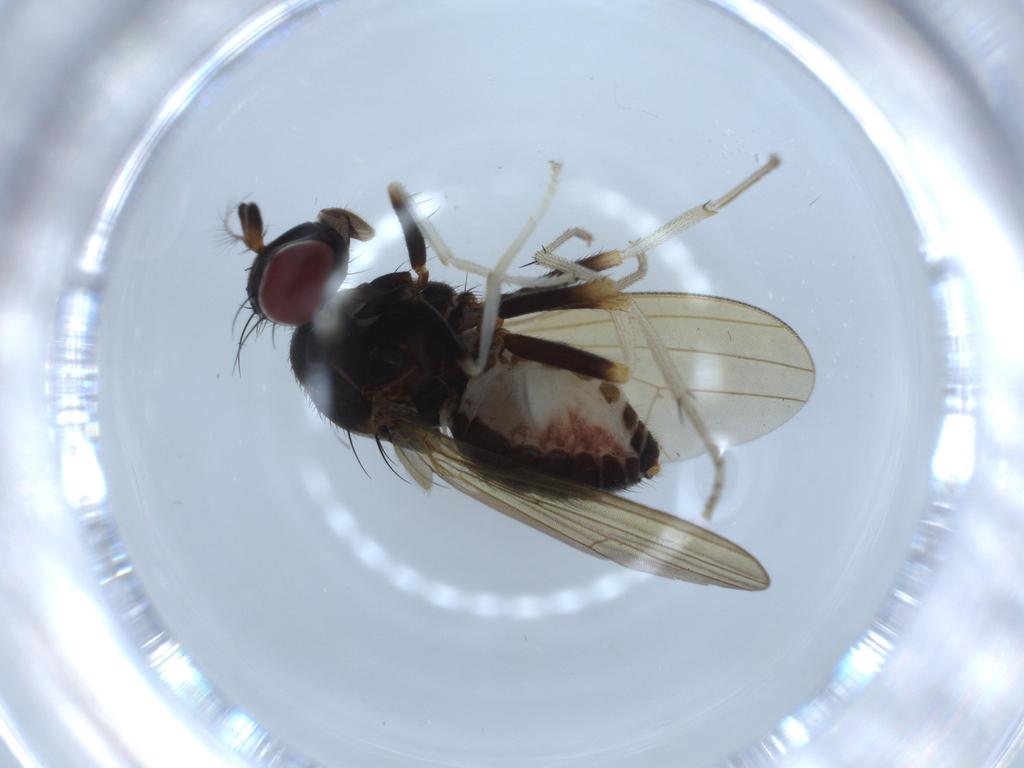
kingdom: Animalia
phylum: Arthropoda
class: Insecta
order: Diptera
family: Lauxaniidae
